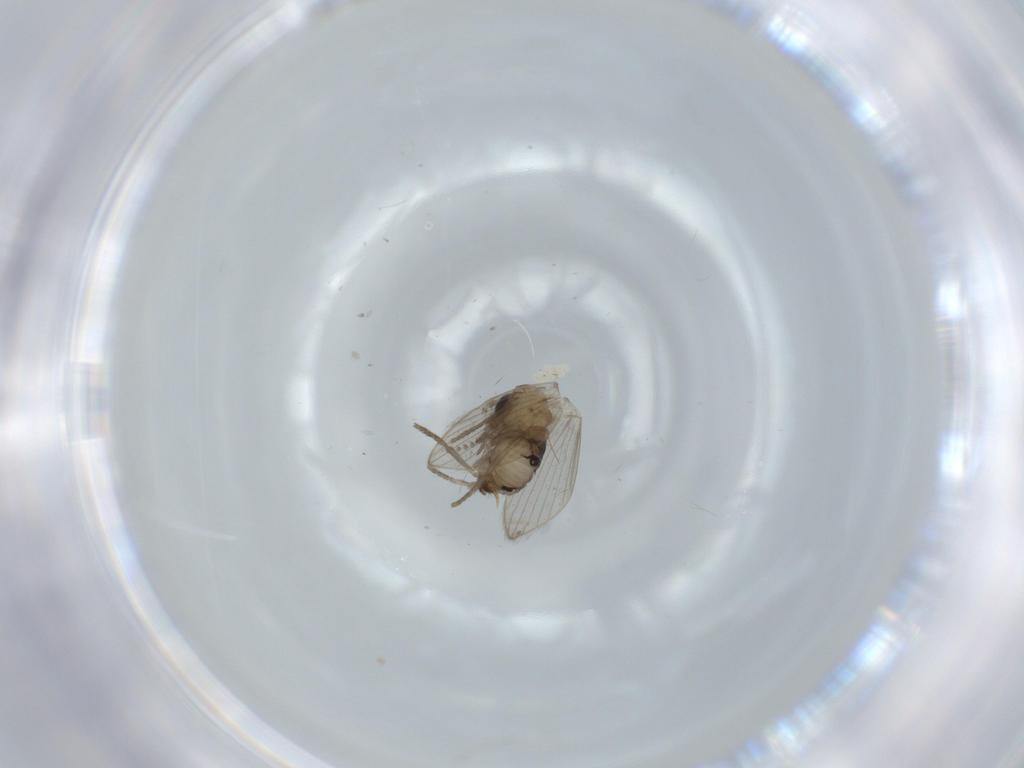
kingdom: Animalia
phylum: Arthropoda
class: Insecta
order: Diptera
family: Psychodidae
